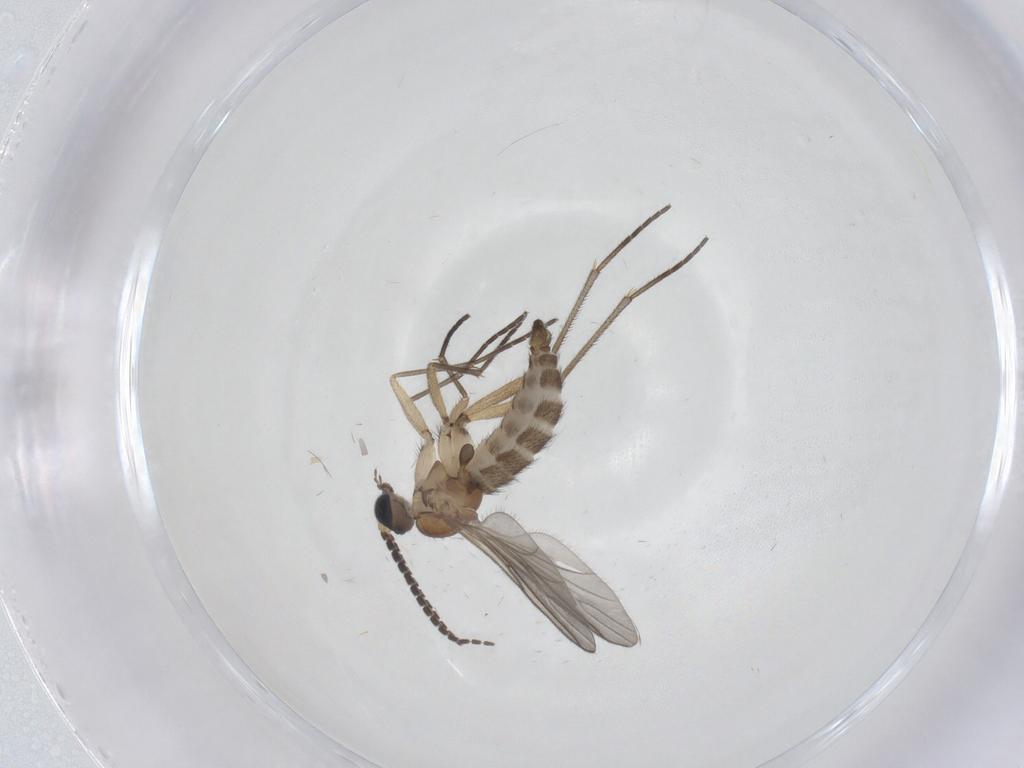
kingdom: Animalia
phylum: Arthropoda
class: Insecta
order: Diptera
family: Sciaridae
